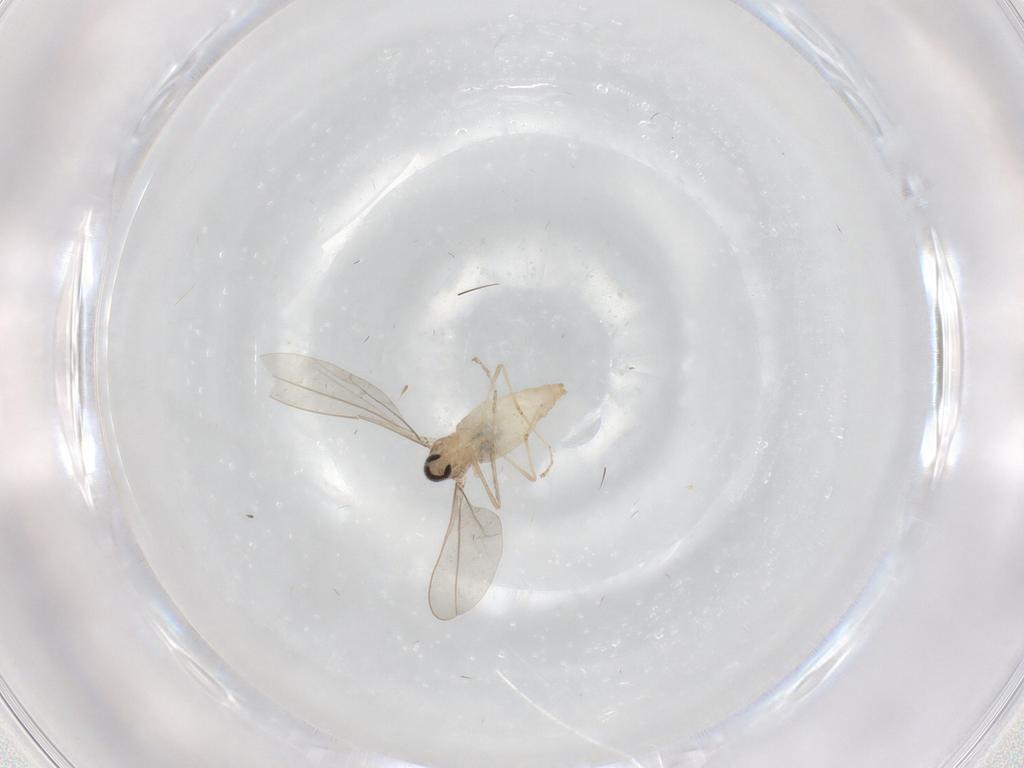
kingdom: Animalia
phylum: Arthropoda
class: Insecta
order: Diptera
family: Cecidomyiidae
